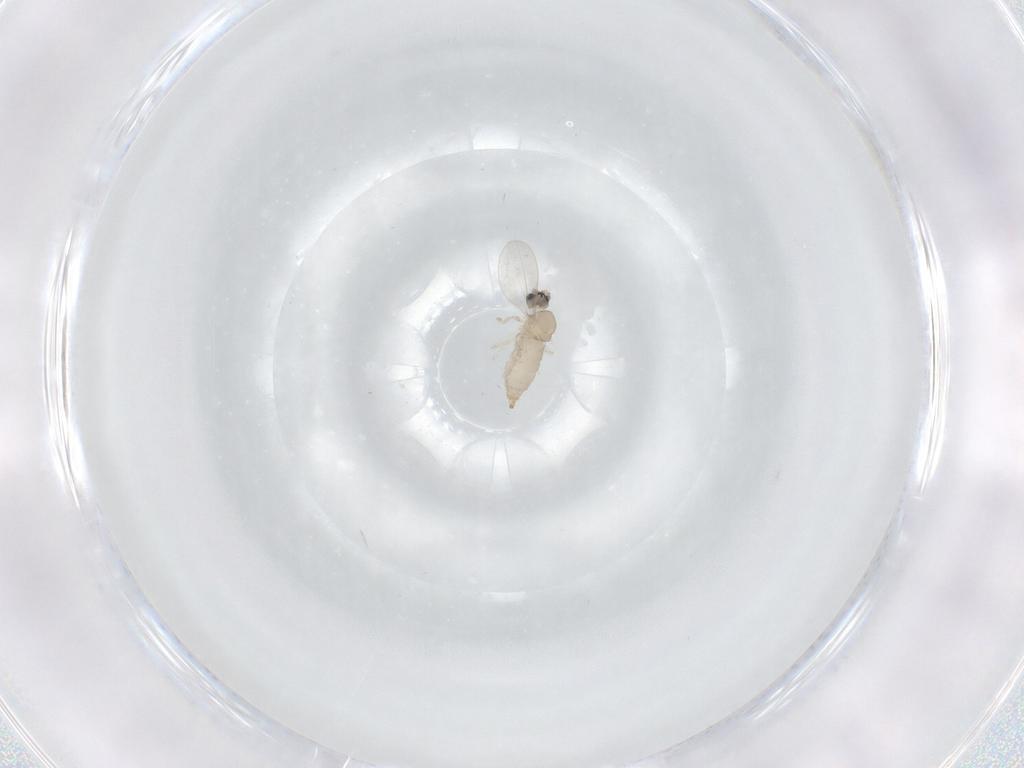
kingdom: Animalia
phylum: Arthropoda
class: Insecta
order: Diptera
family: Cecidomyiidae
